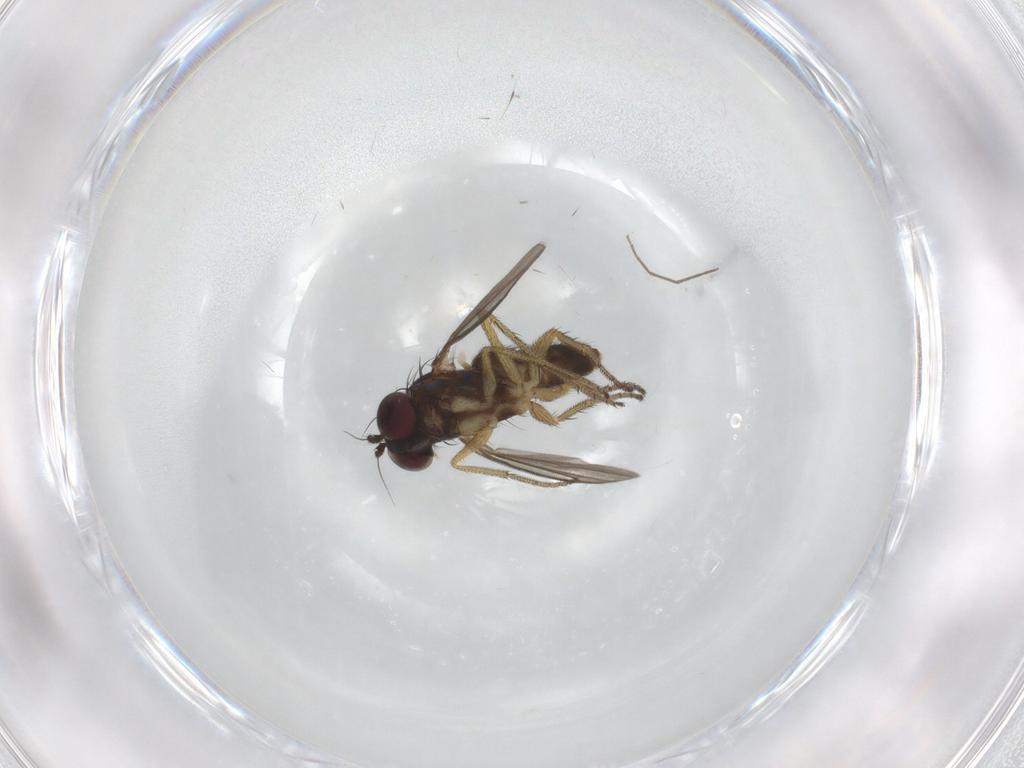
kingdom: Animalia
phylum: Arthropoda
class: Insecta
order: Diptera
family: Chironomidae
